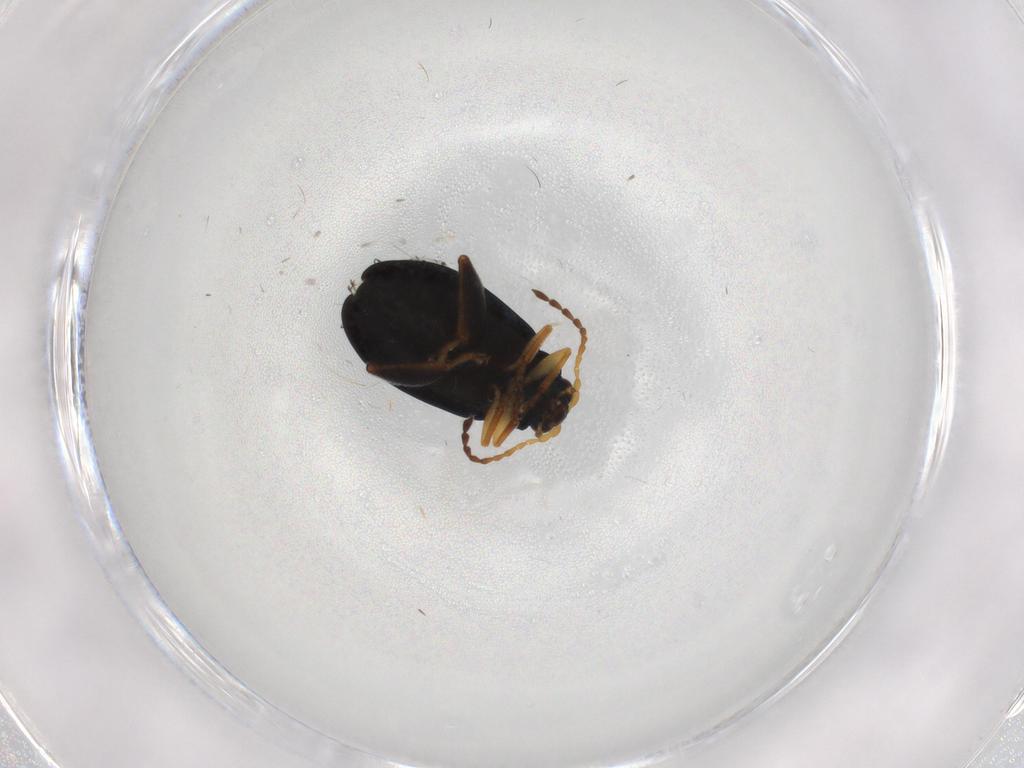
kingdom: Animalia
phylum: Arthropoda
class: Insecta
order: Coleoptera
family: Chrysomelidae
